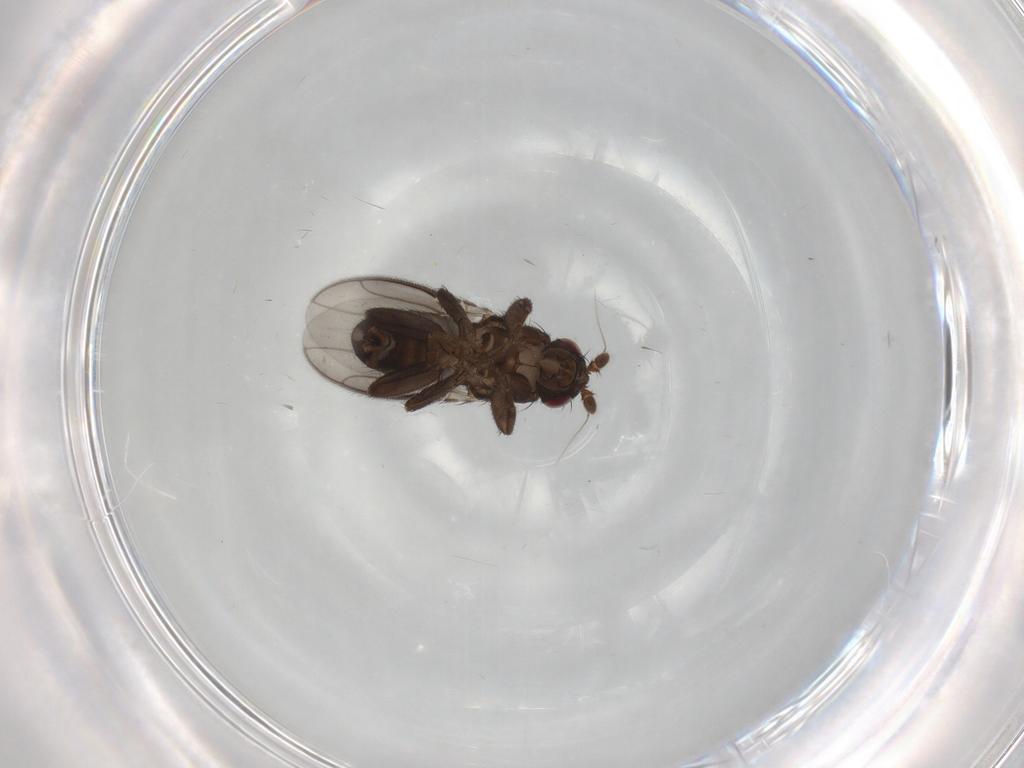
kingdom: Animalia
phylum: Arthropoda
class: Insecta
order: Diptera
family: Sphaeroceridae
